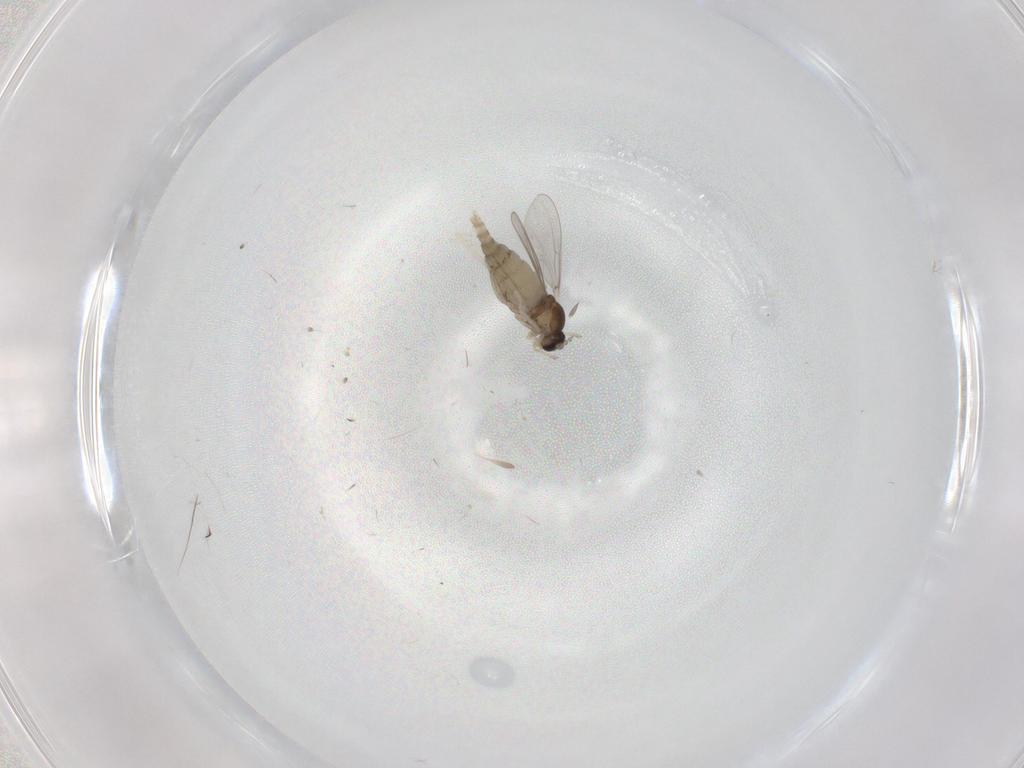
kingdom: Animalia
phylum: Arthropoda
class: Insecta
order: Diptera
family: Cecidomyiidae
